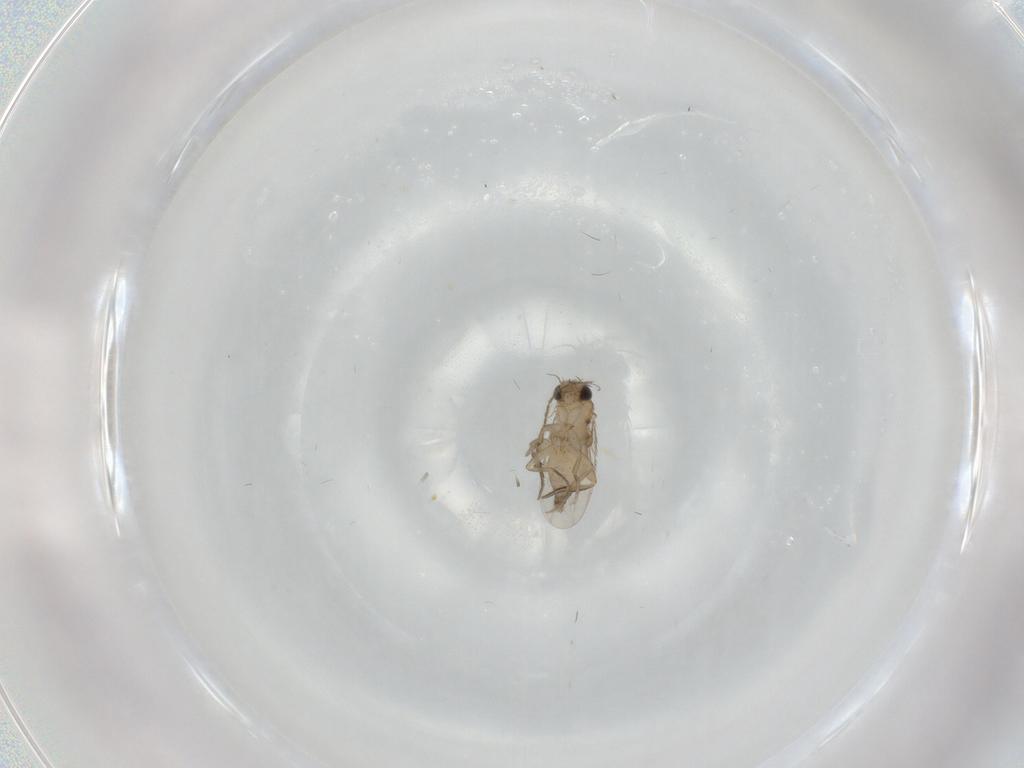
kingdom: Animalia
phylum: Arthropoda
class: Insecta
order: Diptera
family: Phoridae
